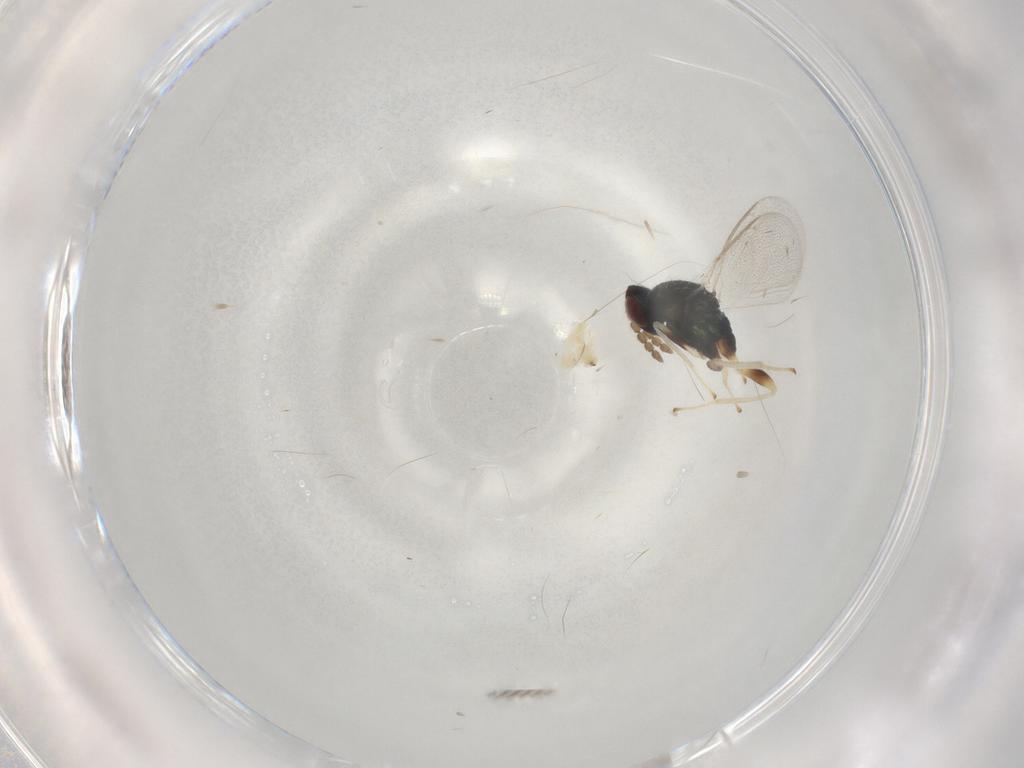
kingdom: Animalia
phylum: Arthropoda
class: Insecta
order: Hymenoptera
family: Eulophidae
